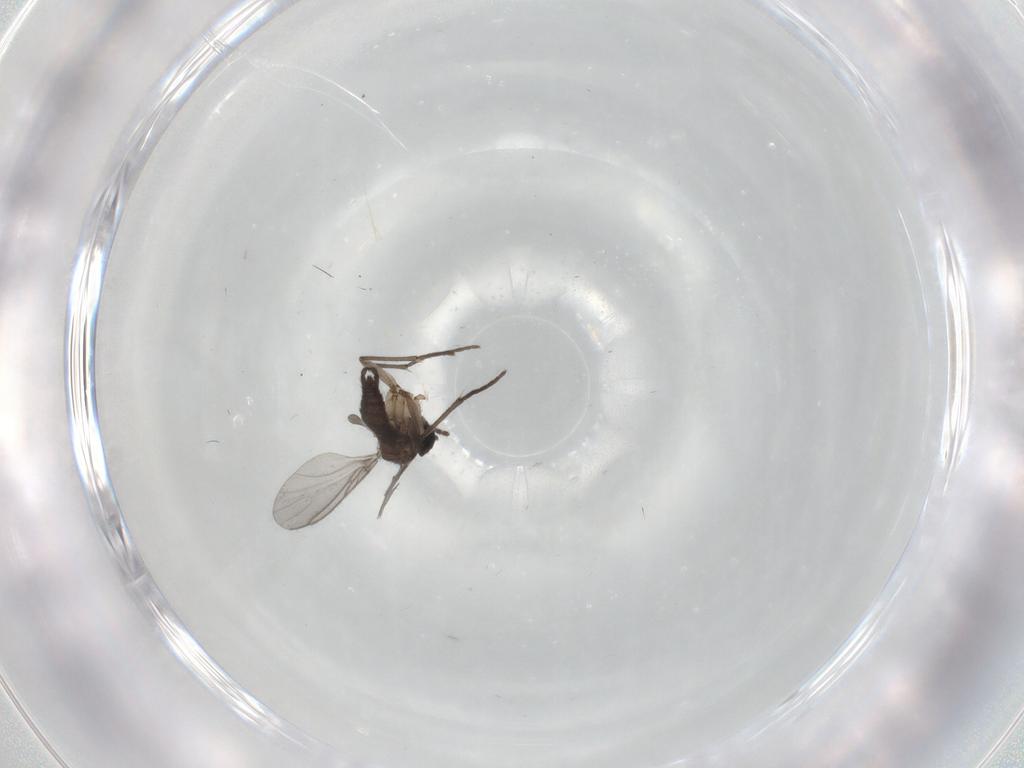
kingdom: Animalia
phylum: Arthropoda
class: Insecta
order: Diptera
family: Sciaridae
